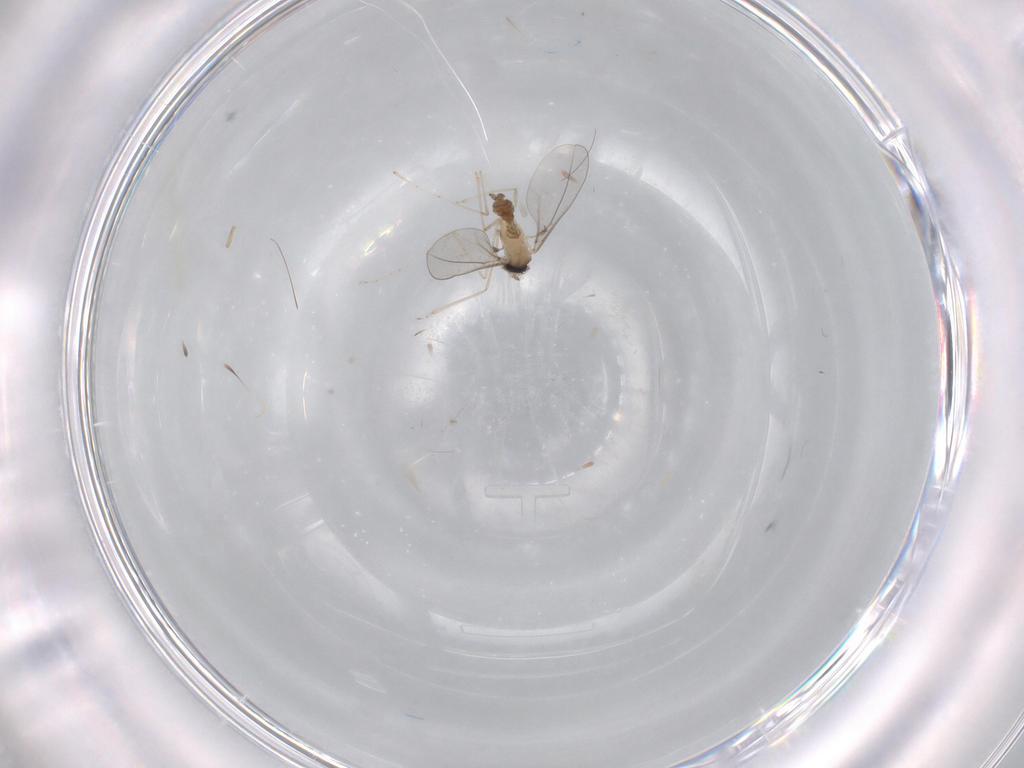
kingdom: Animalia
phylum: Arthropoda
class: Insecta
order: Diptera
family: Cecidomyiidae
